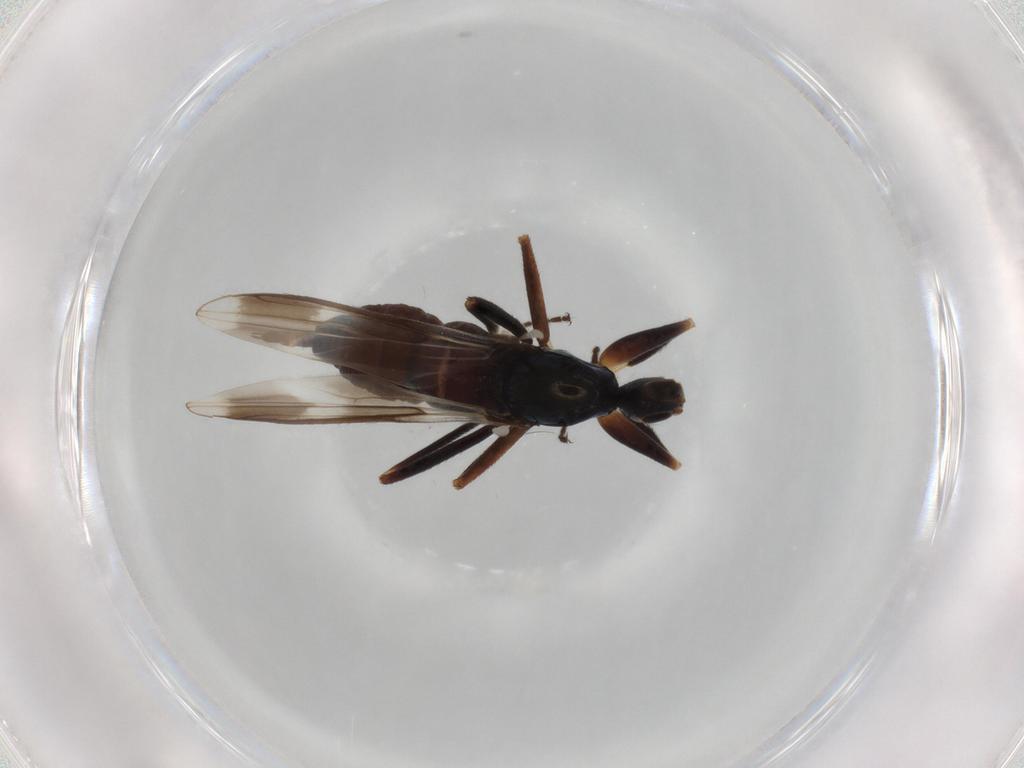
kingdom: Animalia
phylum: Arthropoda
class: Insecta
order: Diptera
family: Hybotidae
